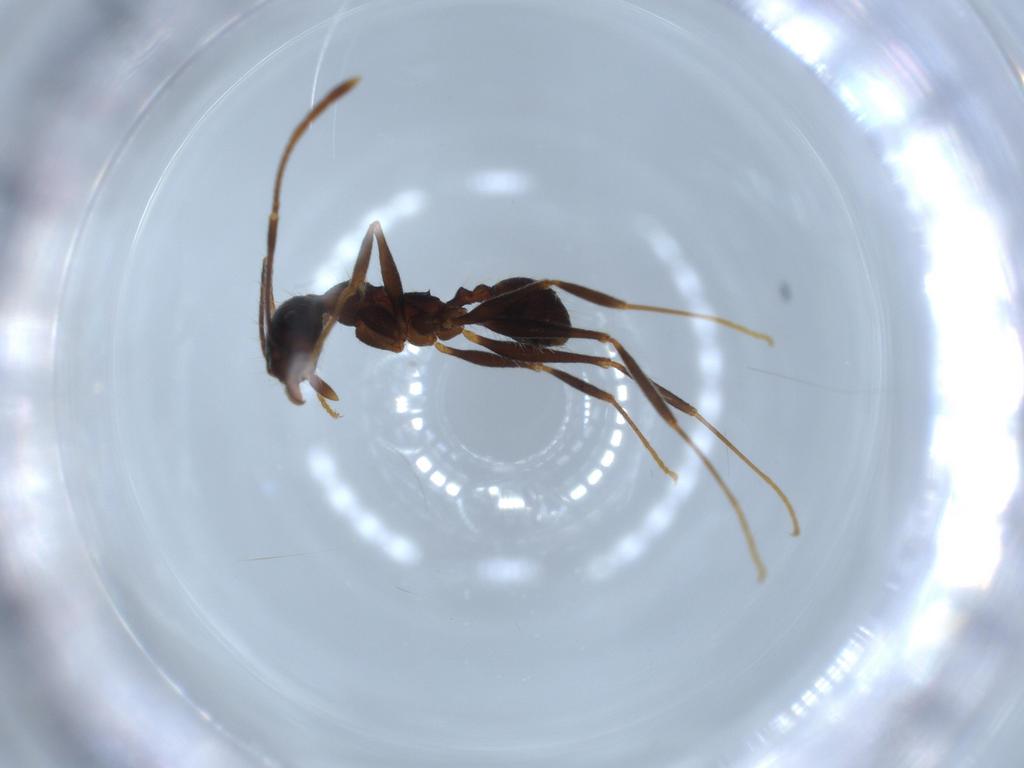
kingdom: Animalia
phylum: Arthropoda
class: Insecta
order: Hymenoptera
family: Formicidae
